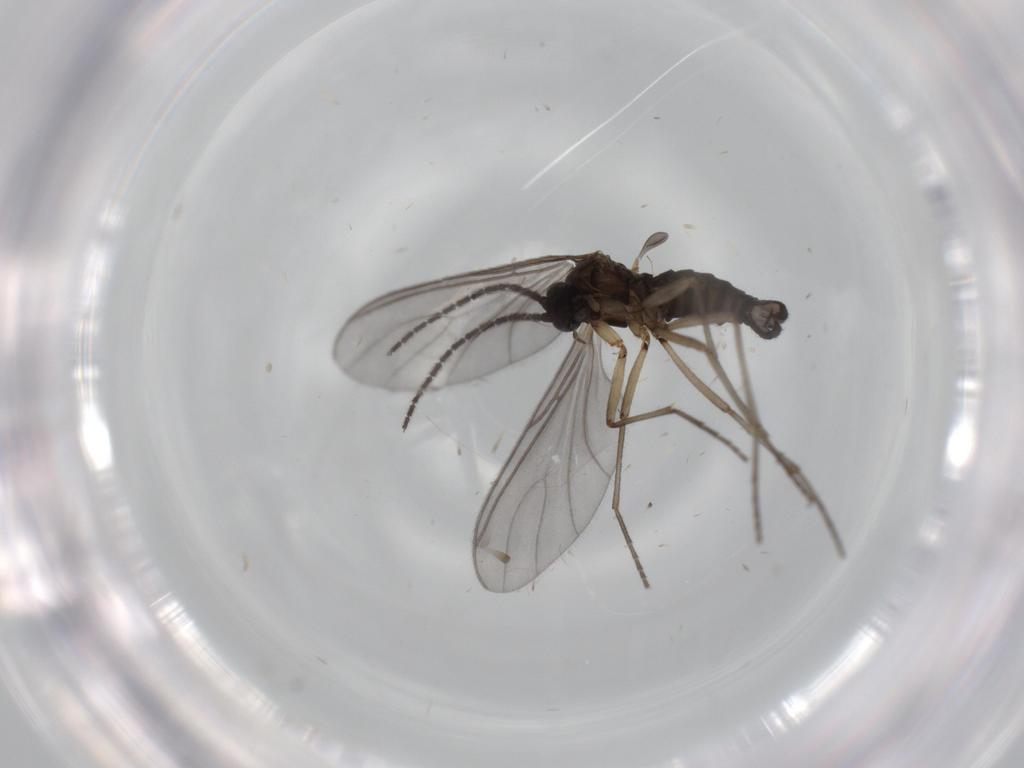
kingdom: Animalia
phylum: Arthropoda
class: Insecta
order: Diptera
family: Sciaridae
